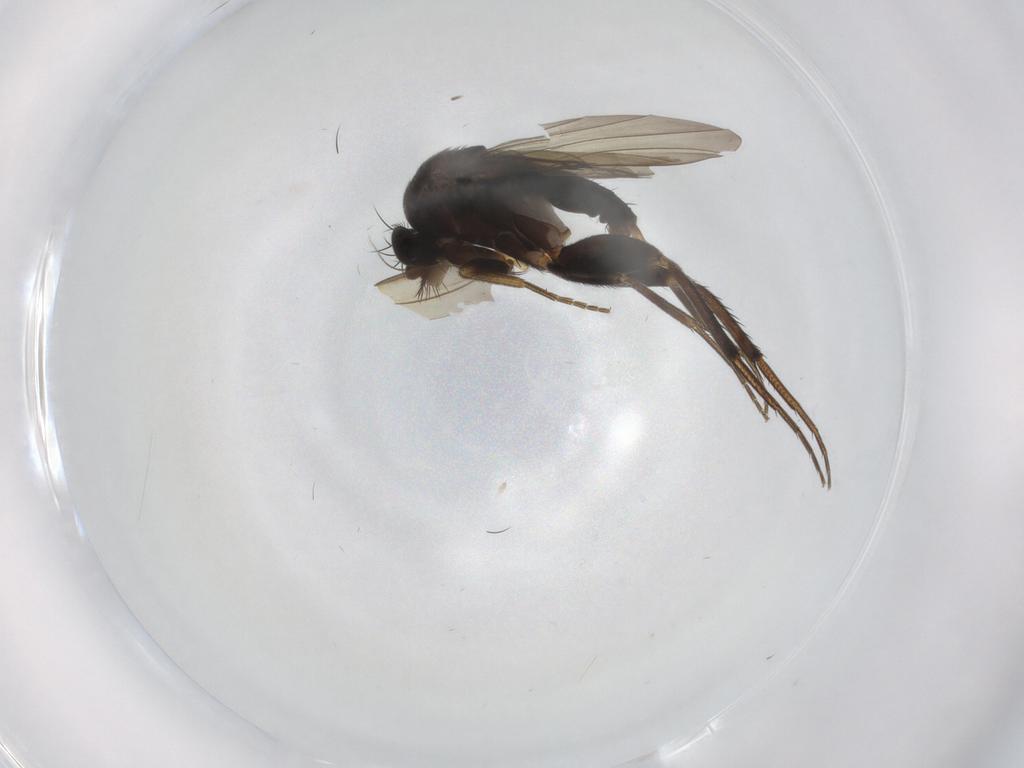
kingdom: Animalia
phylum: Arthropoda
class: Insecta
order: Diptera
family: Phoridae
